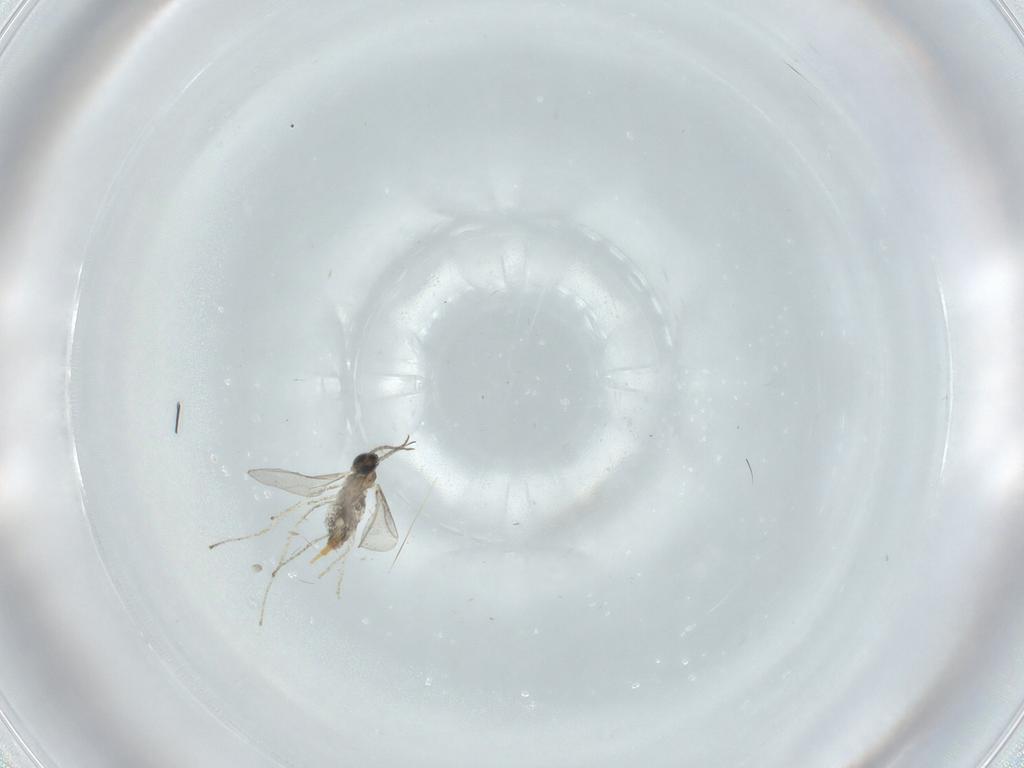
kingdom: Animalia
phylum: Arthropoda
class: Insecta
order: Diptera
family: Cecidomyiidae
